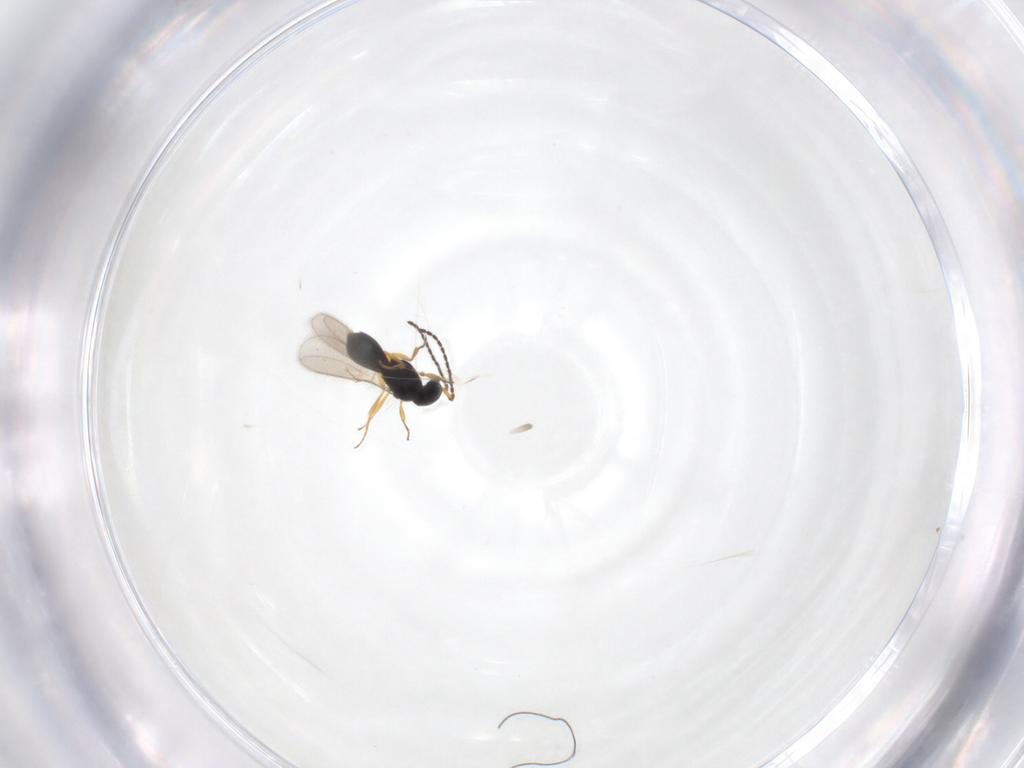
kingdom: Animalia
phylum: Arthropoda
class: Insecta
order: Hymenoptera
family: Scelionidae
